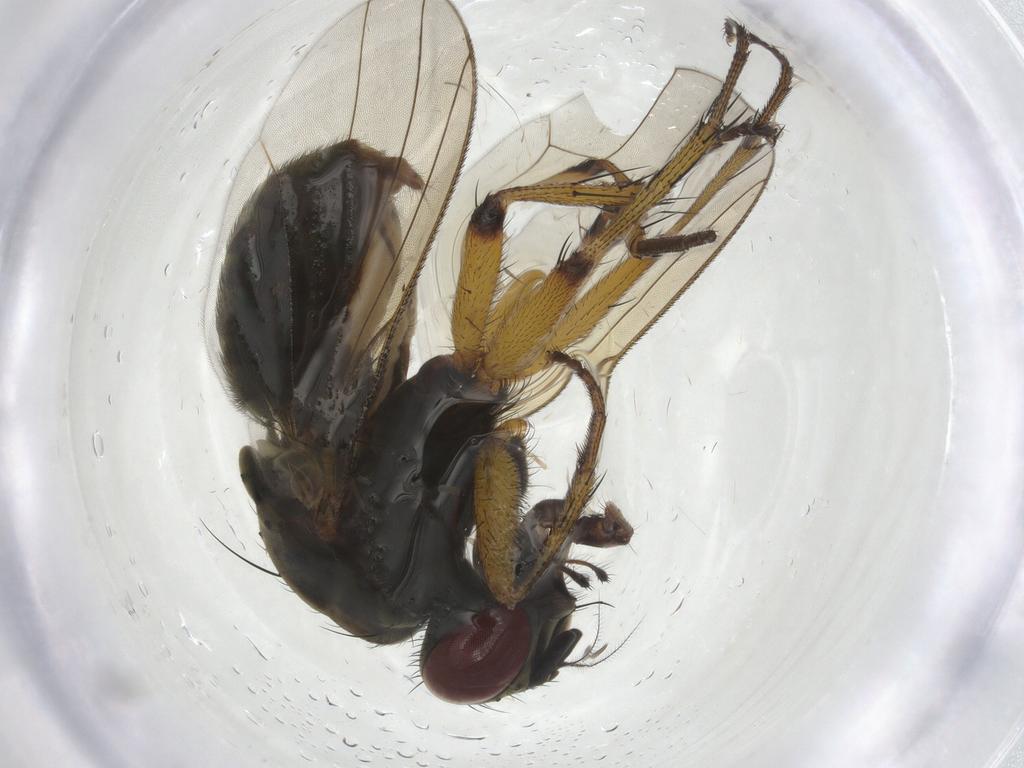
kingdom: Animalia
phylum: Arthropoda
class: Insecta
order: Diptera
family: Muscidae
